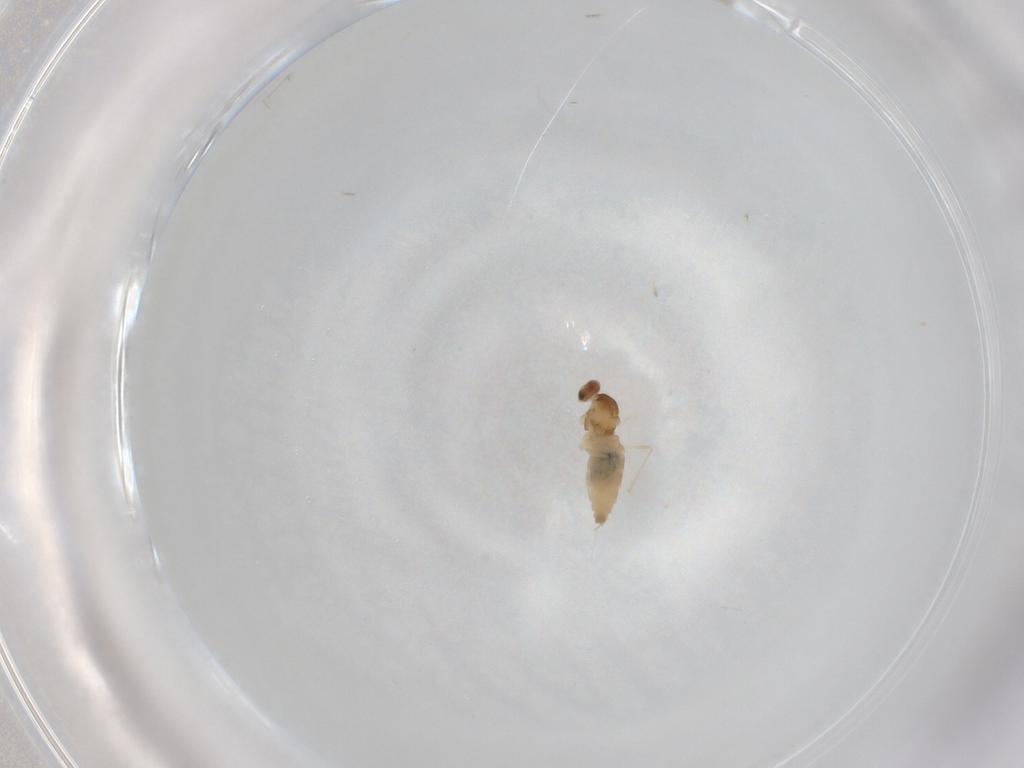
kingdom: Animalia
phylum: Arthropoda
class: Insecta
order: Diptera
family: Cecidomyiidae
